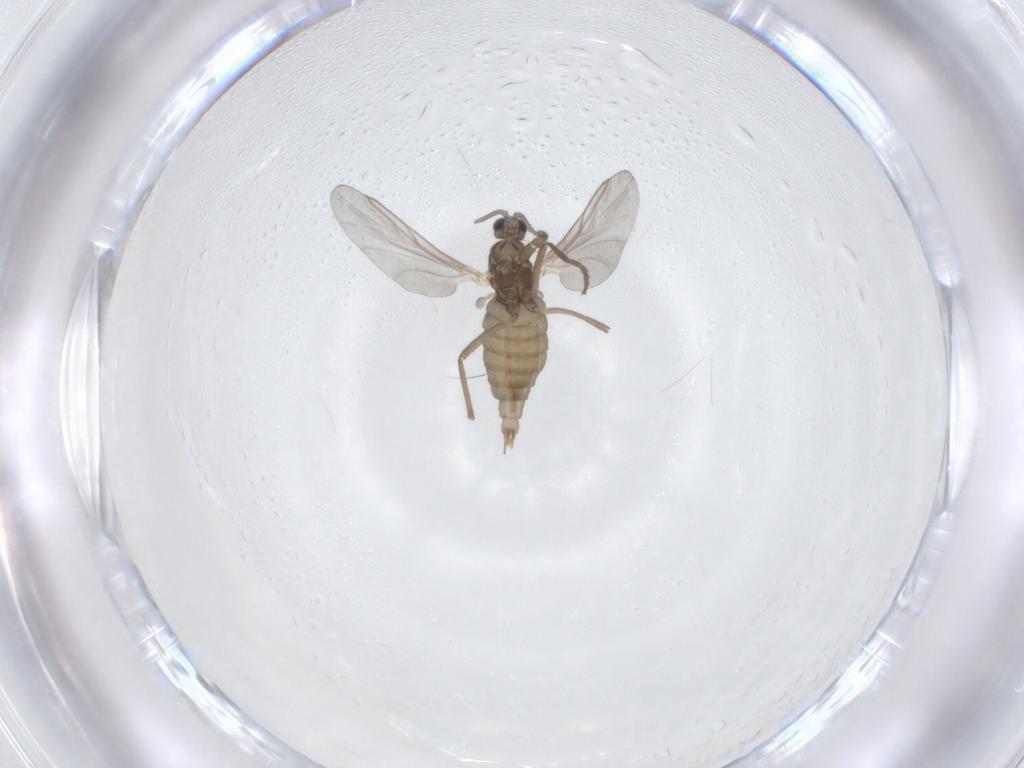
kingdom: Animalia
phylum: Arthropoda
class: Insecta
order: Diptera
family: Cecidomyiidae
